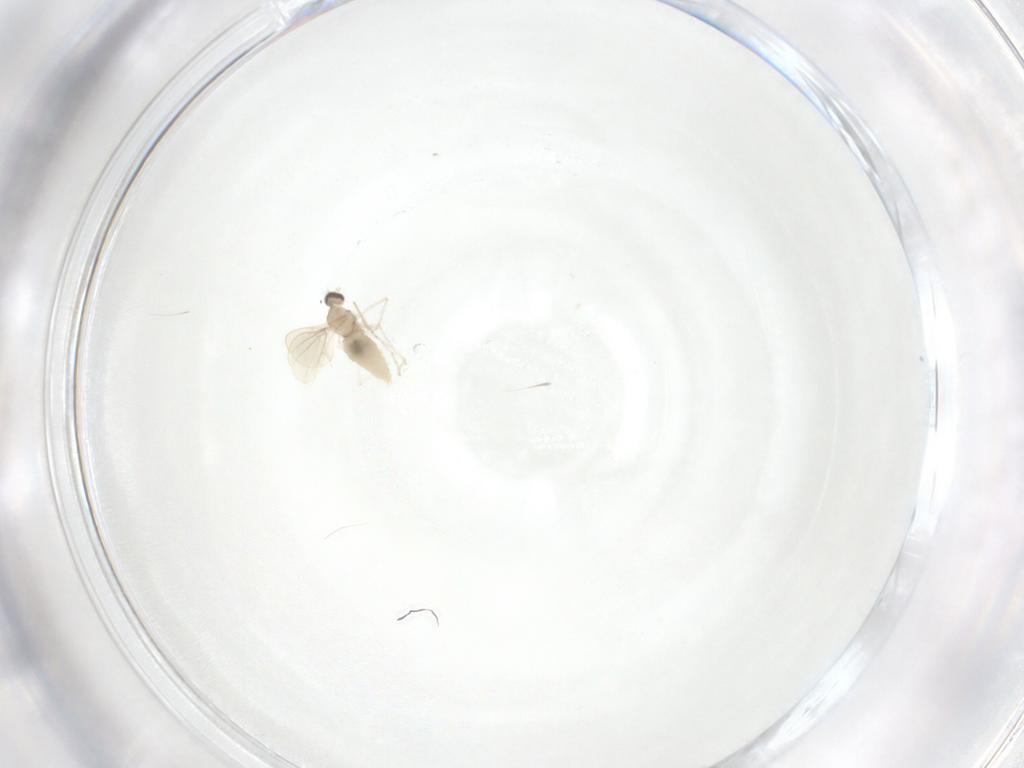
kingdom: Animalia
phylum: Arthropoda
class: Insecta
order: Diptera
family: Cecidomyiidae
